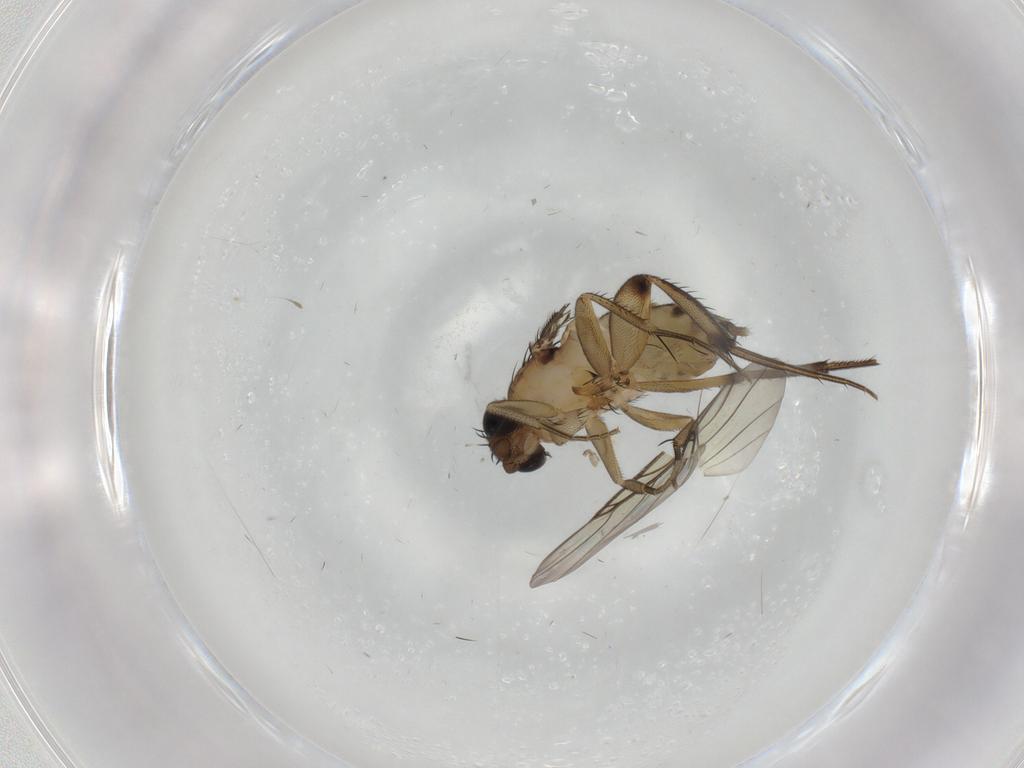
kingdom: Animalia
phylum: Arthropoda
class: Insecta
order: Diptera
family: Phoridae
